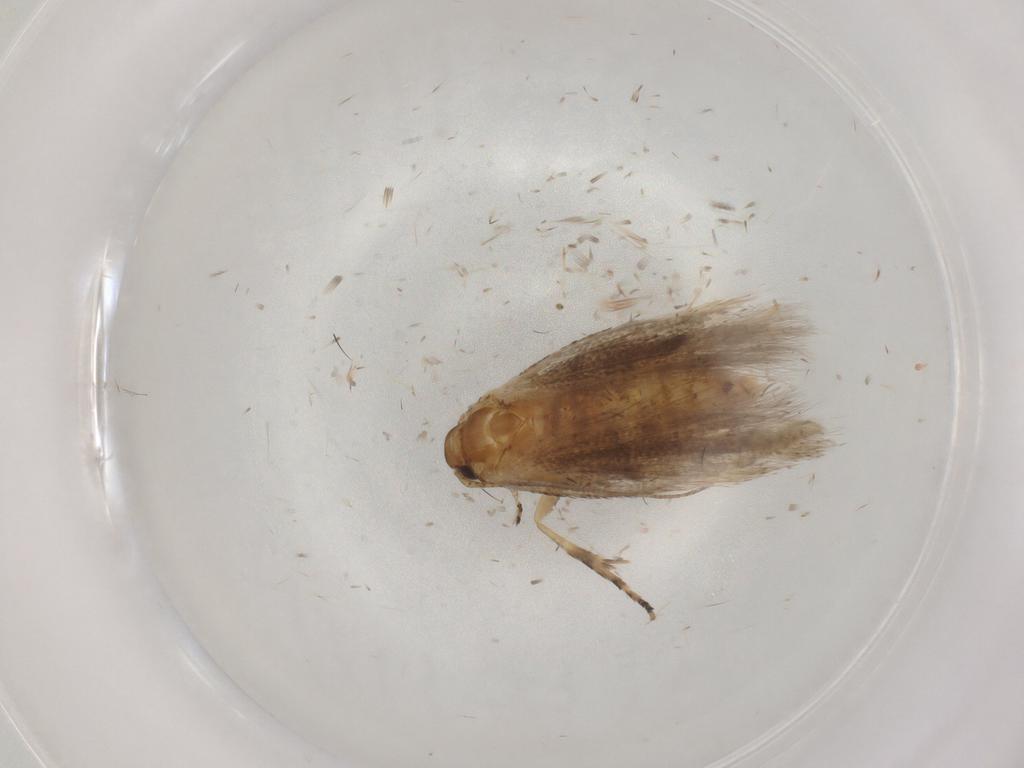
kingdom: Animalia
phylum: Arthropoda
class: Insecta
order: Lepidoptera
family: Gelechiidae
